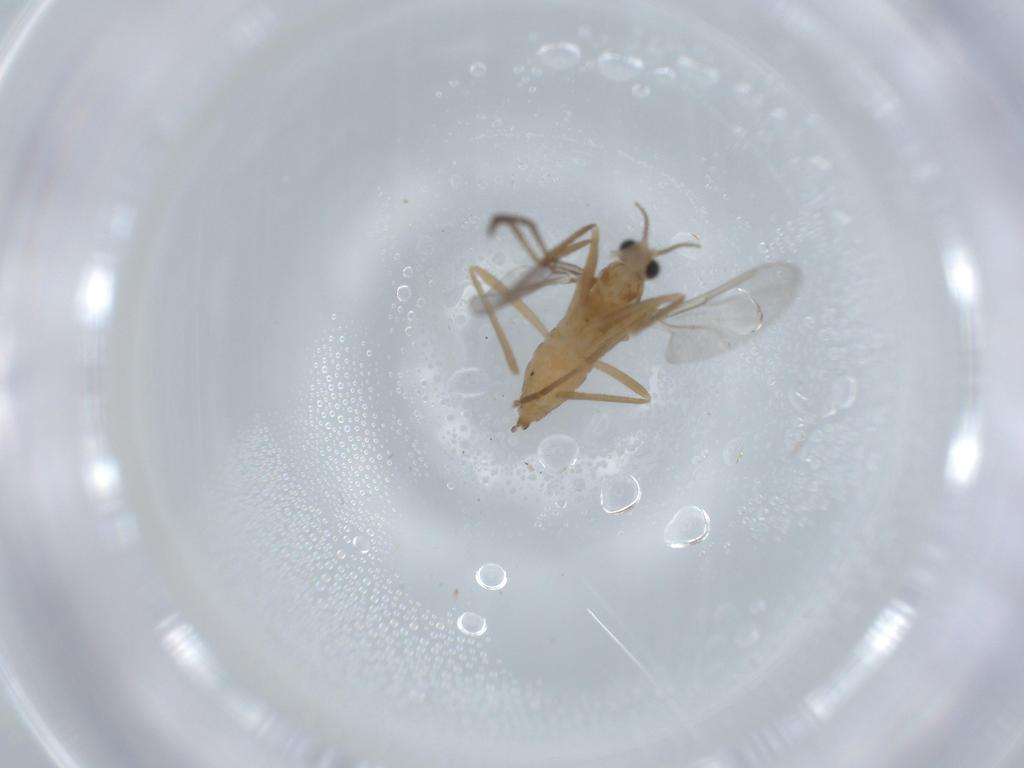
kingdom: Animalia
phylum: Arthropoda
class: Insecta
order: Diptera
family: Cecidomyiidae
